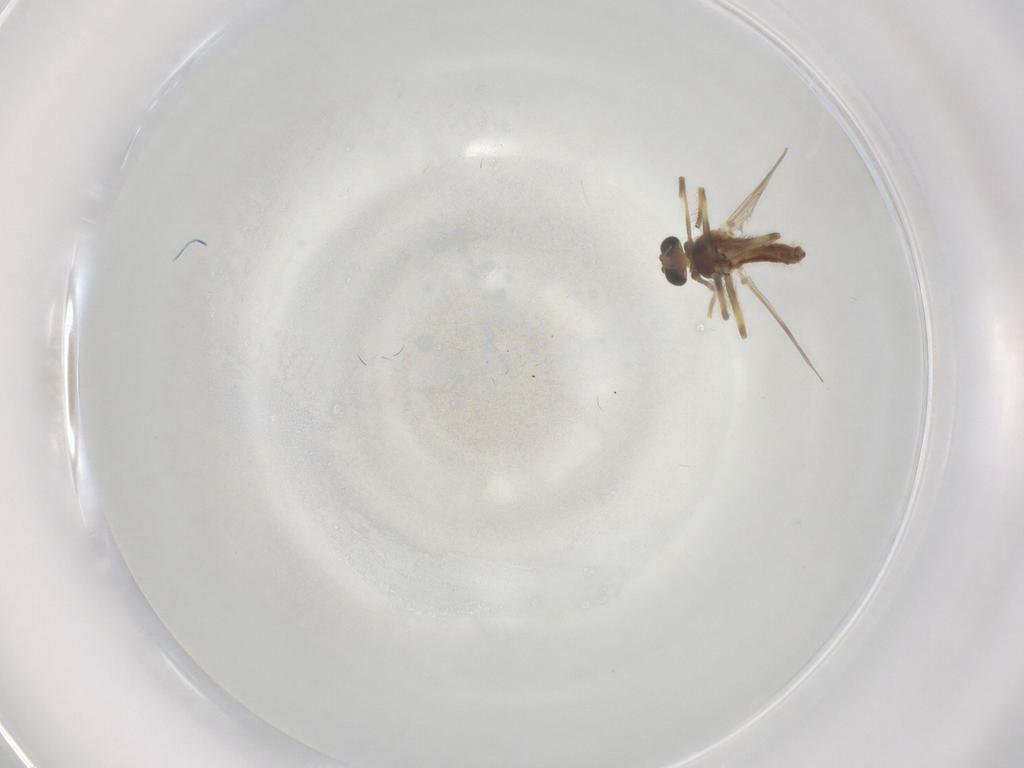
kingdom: Animalia
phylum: Arthropoda
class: Insecta
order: Diptera
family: Chironomidae
